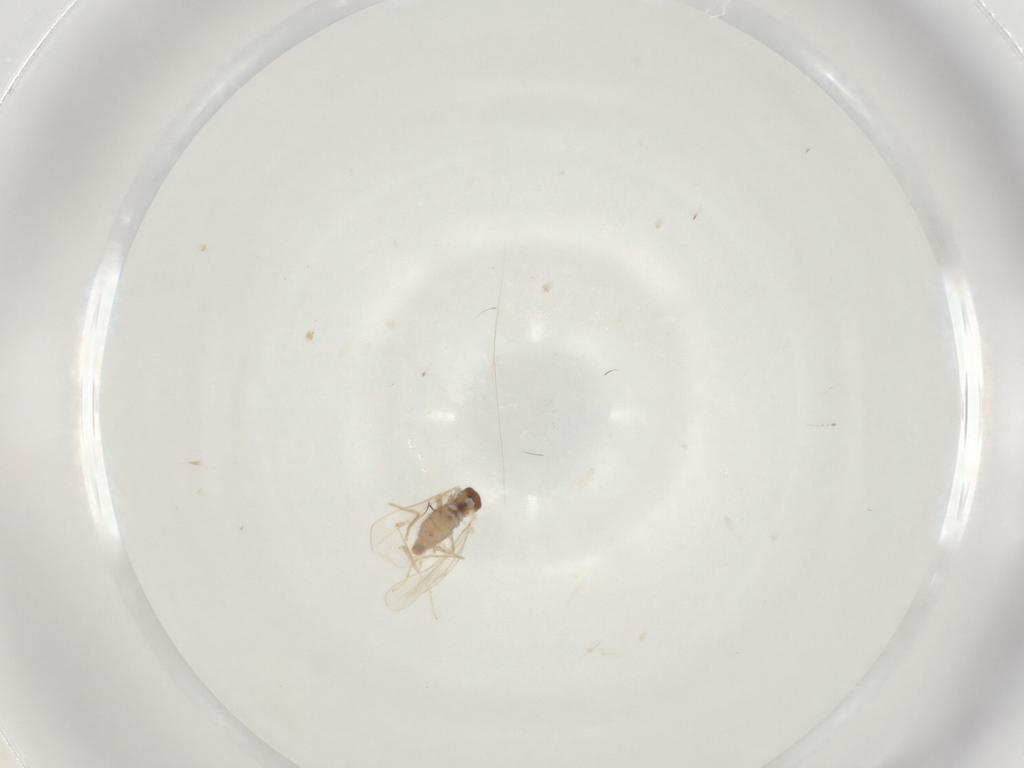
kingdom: Animalia
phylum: Arthropoda
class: Insecta
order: Diptera
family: Cecidomyiidae
